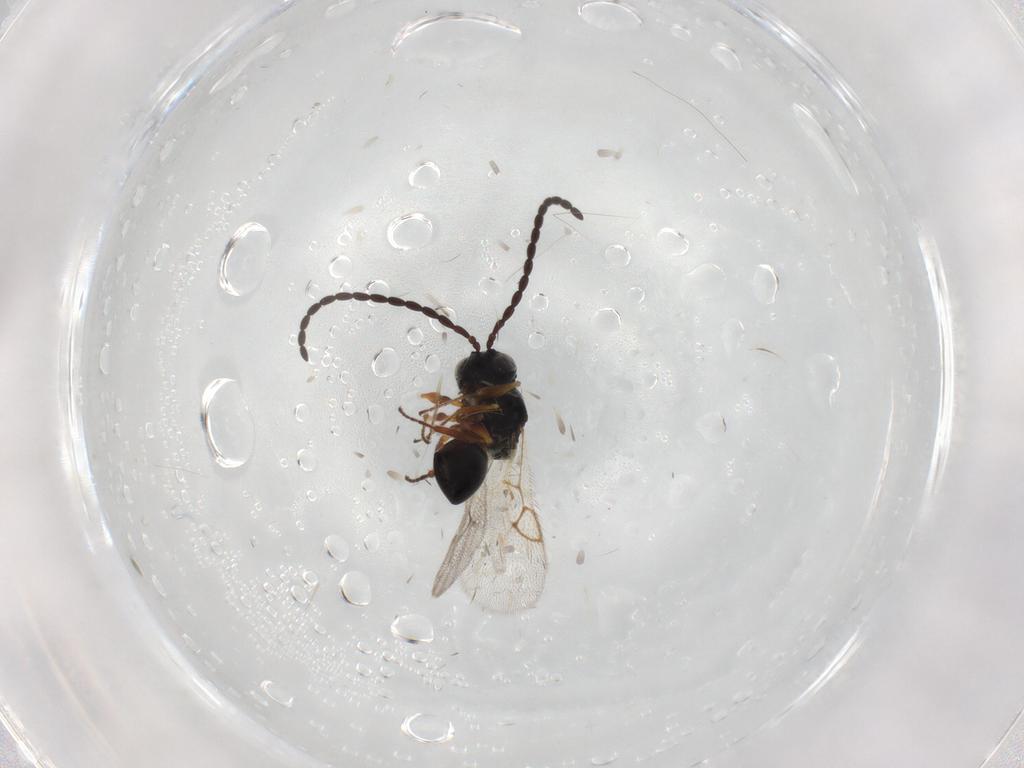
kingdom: Animalia
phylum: Arthropoda
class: Insecta
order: Hymenoptera
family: Figitidae
